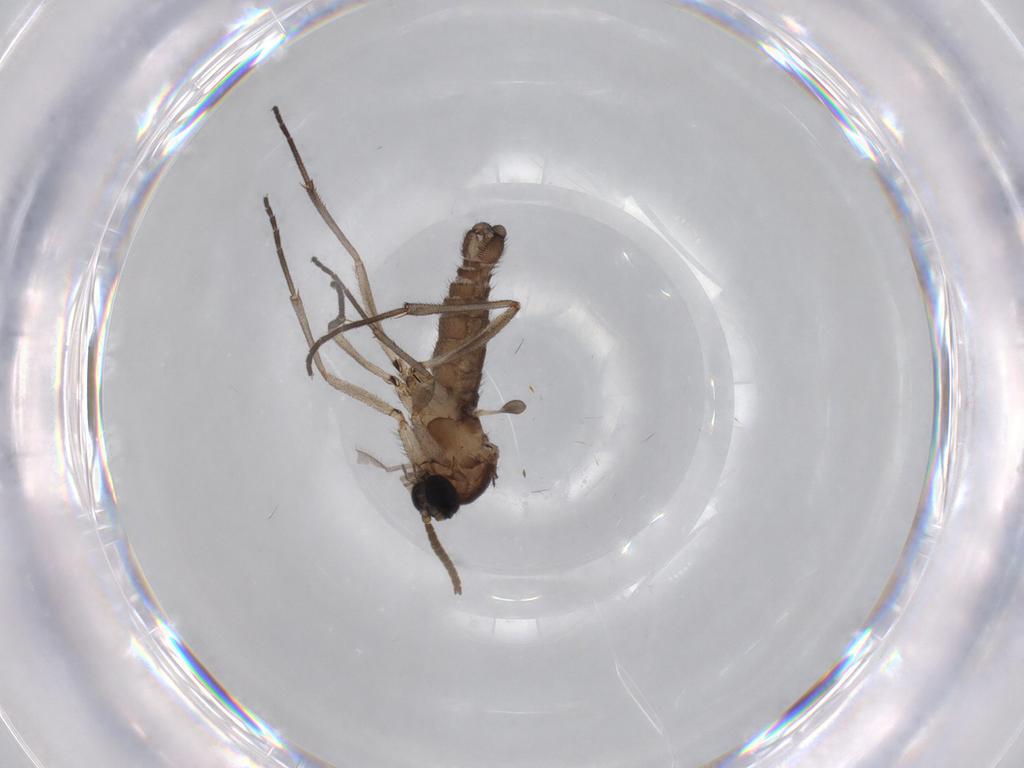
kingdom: Animalia
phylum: Arthropoda
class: Insecta
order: Diptera
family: Cecidomyiidae
